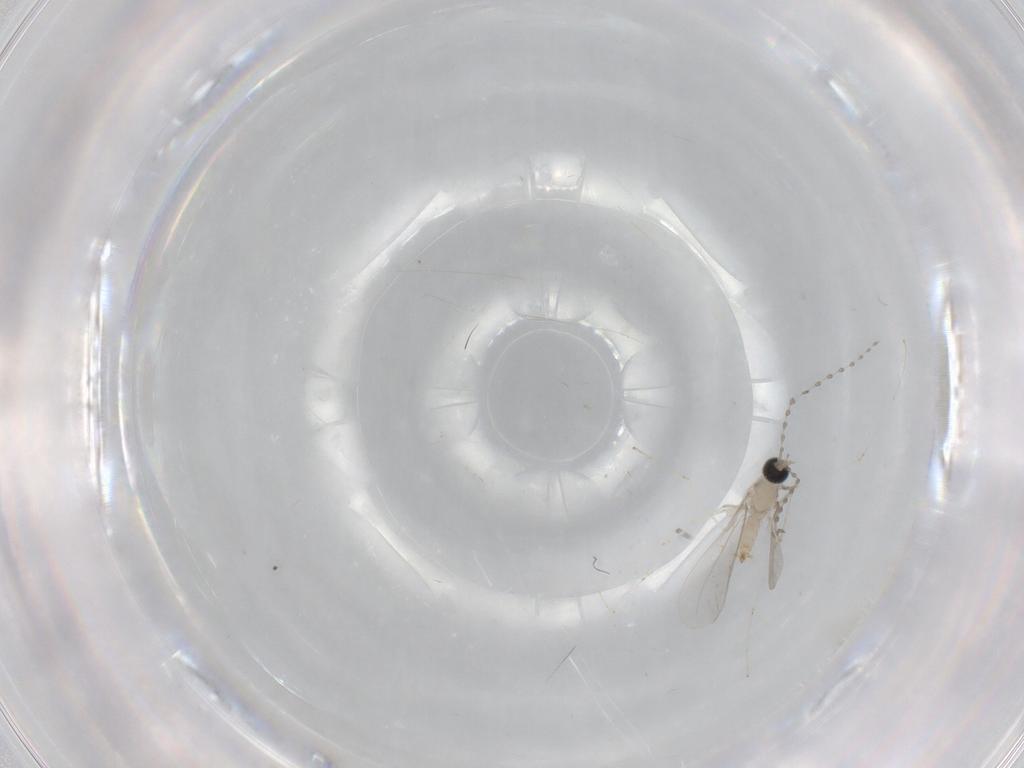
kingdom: Animalia
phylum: Arthropoda
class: Insecta
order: Diptera
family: Cecidomyiidae
